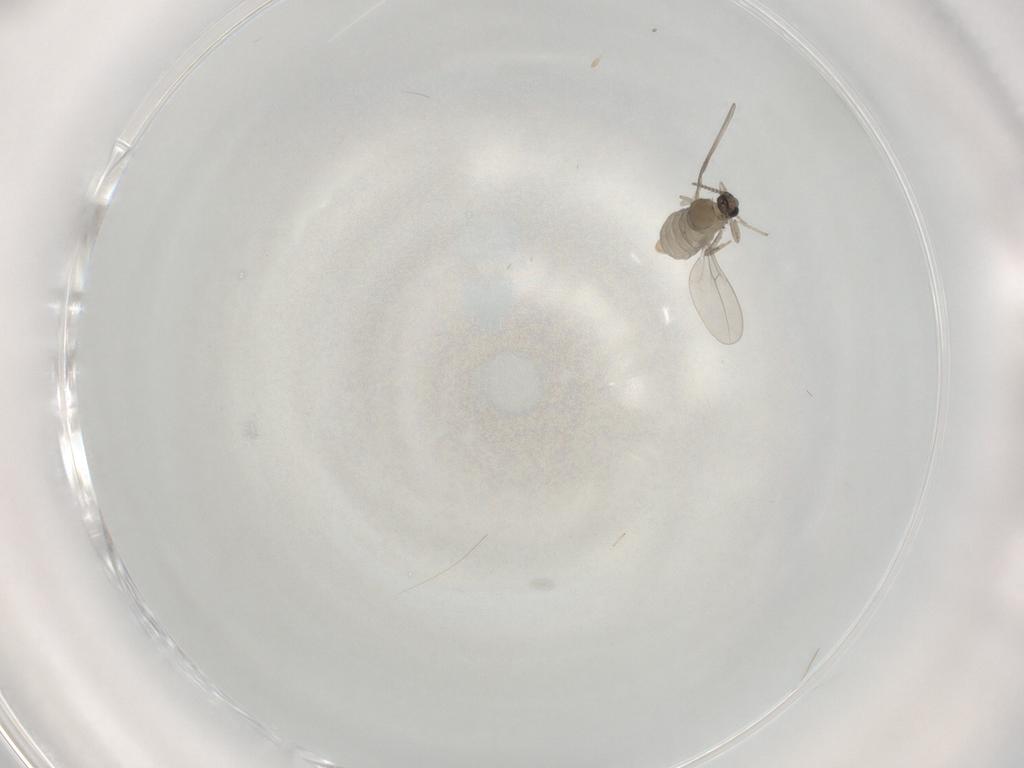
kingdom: Animalia
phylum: Arthropoda
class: Insecta
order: Diptera
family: Cecidomyiidae
